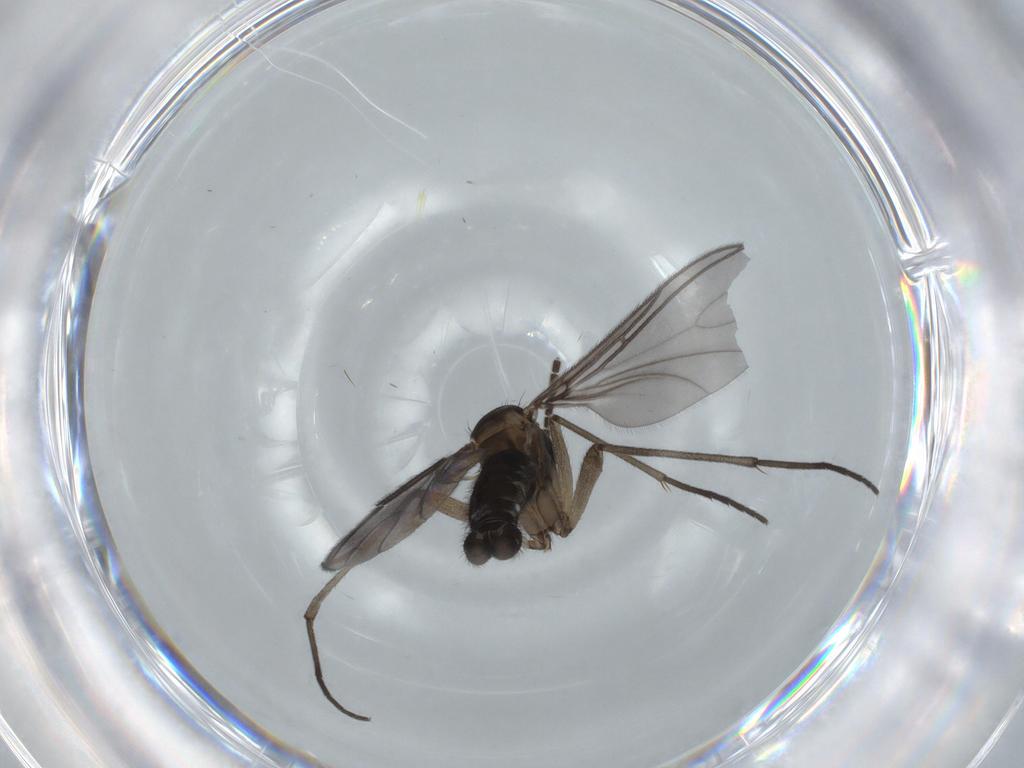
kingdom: Animalia
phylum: Arthropoda
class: Insecta
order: Diptera
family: Sciaridae
